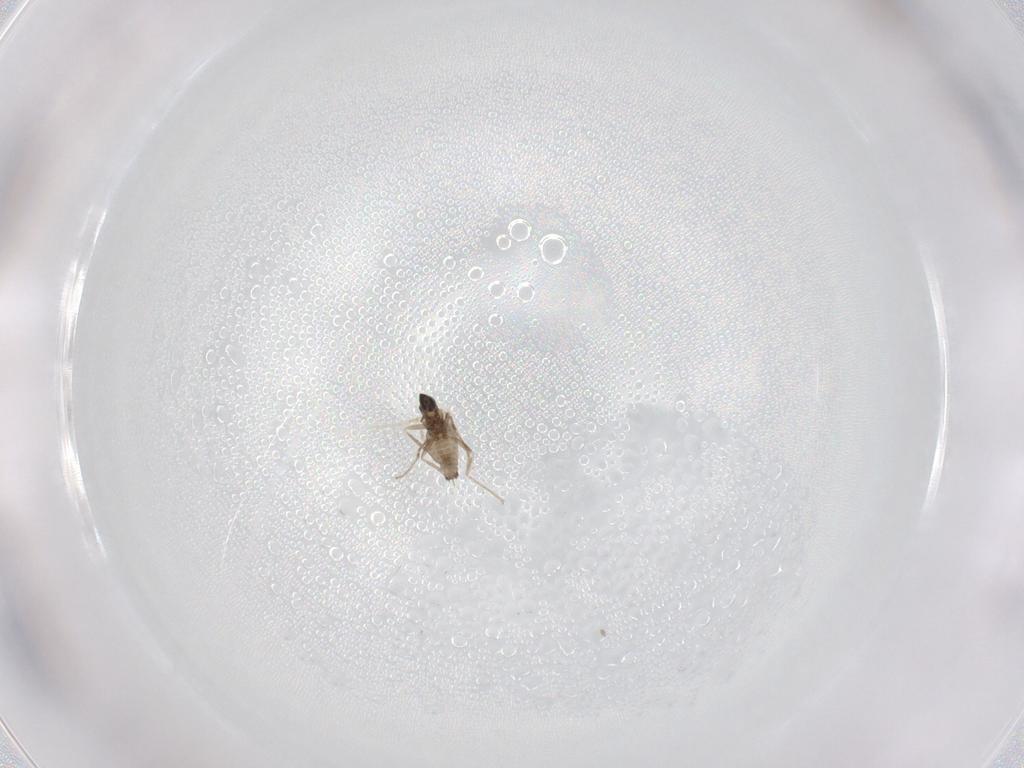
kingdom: Animalia
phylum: Arthropoda
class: Insecta
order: Diptera
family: Cecidomyiidae
